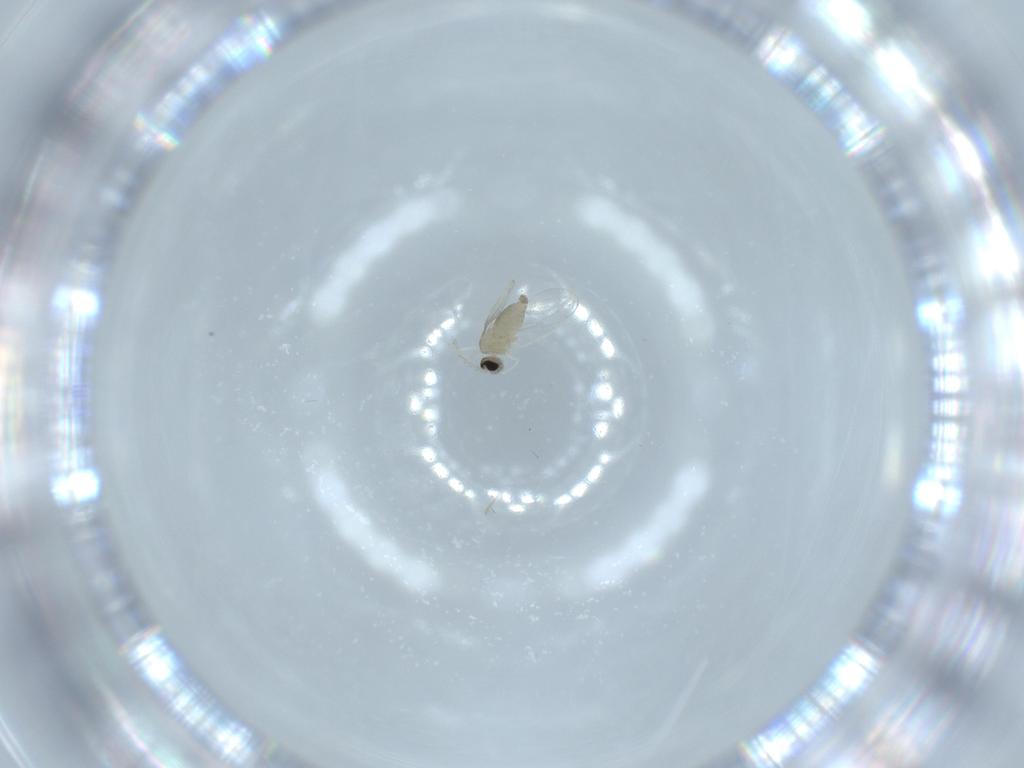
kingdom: Animalia
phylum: Arthropoda
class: Insecta
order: Diptera
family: Cecidomyiidae
